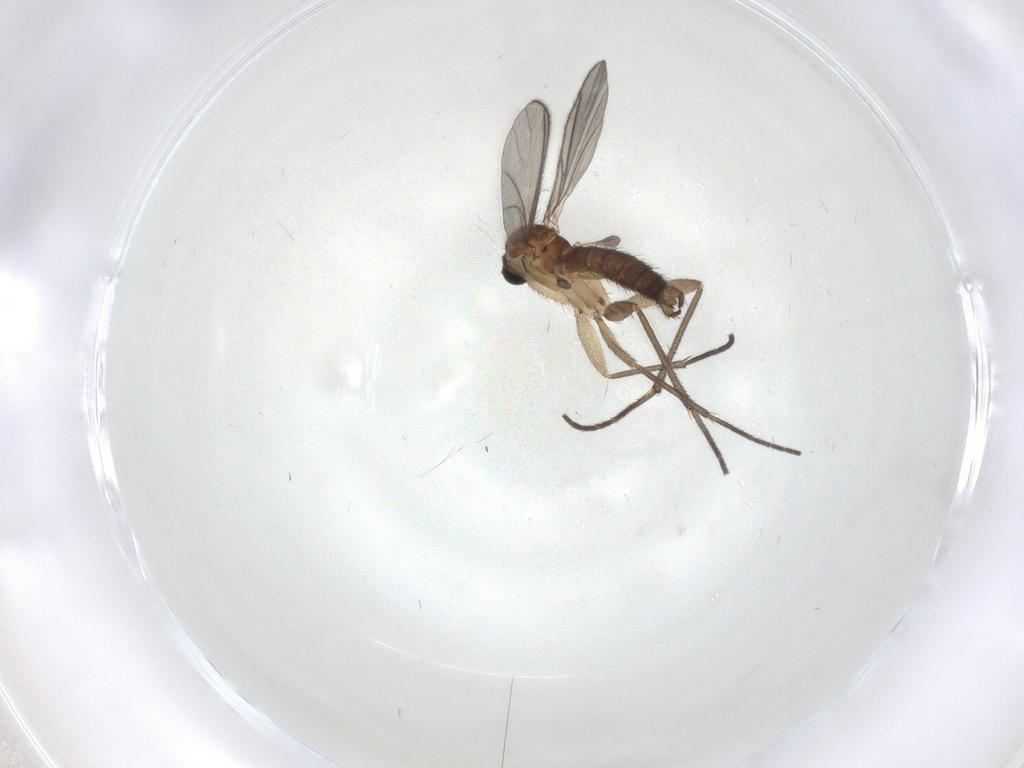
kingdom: Animalia
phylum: Arthropoda
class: Insecta
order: Diptera
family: Sciaridae
